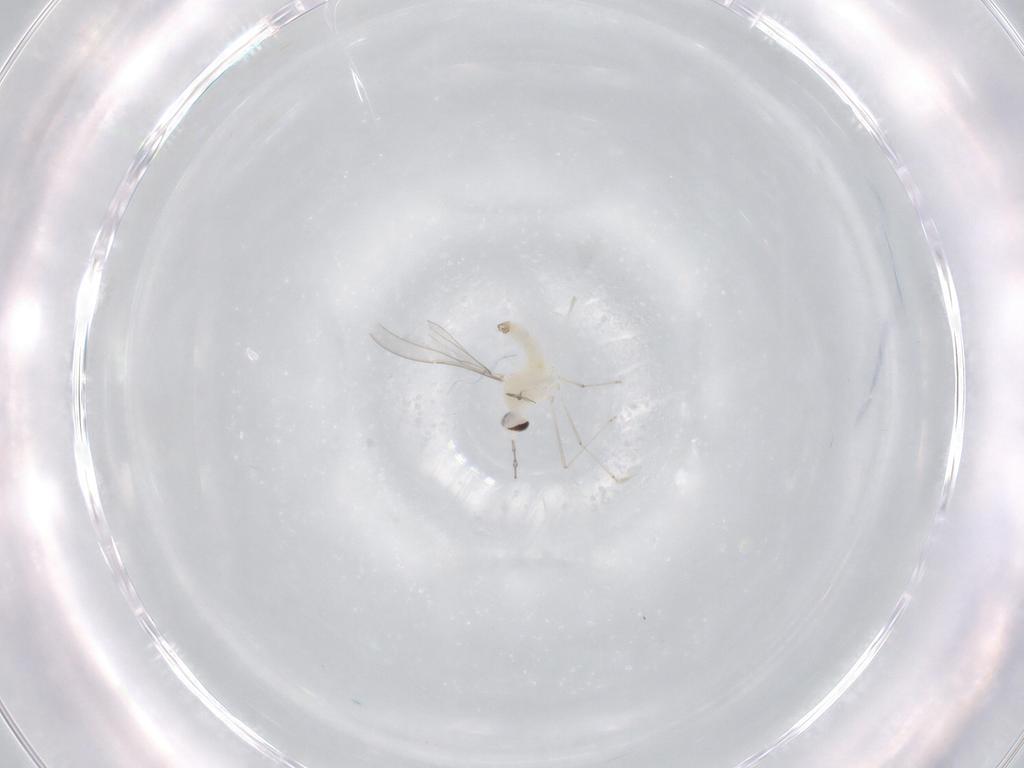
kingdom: Animalia
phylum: Arthropoda
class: Insecta
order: Diptera
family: Cecidomyiidae
